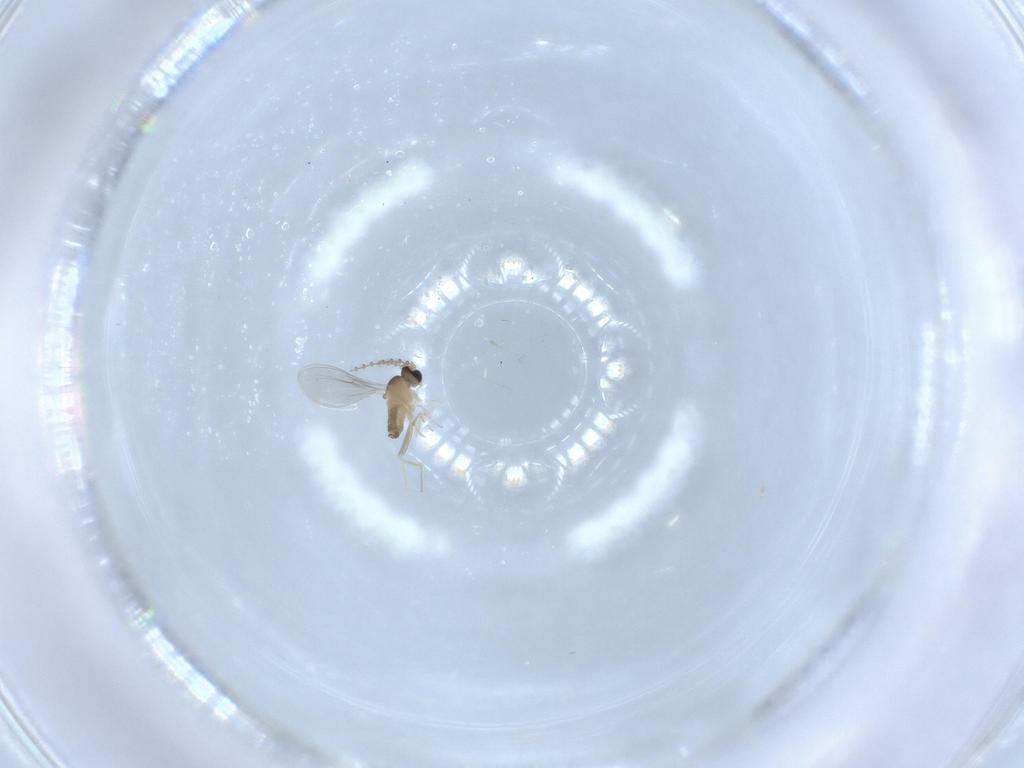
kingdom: Animalia
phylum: Arthropoda
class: Insecta
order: Diptera
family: Cecidomyiidae
